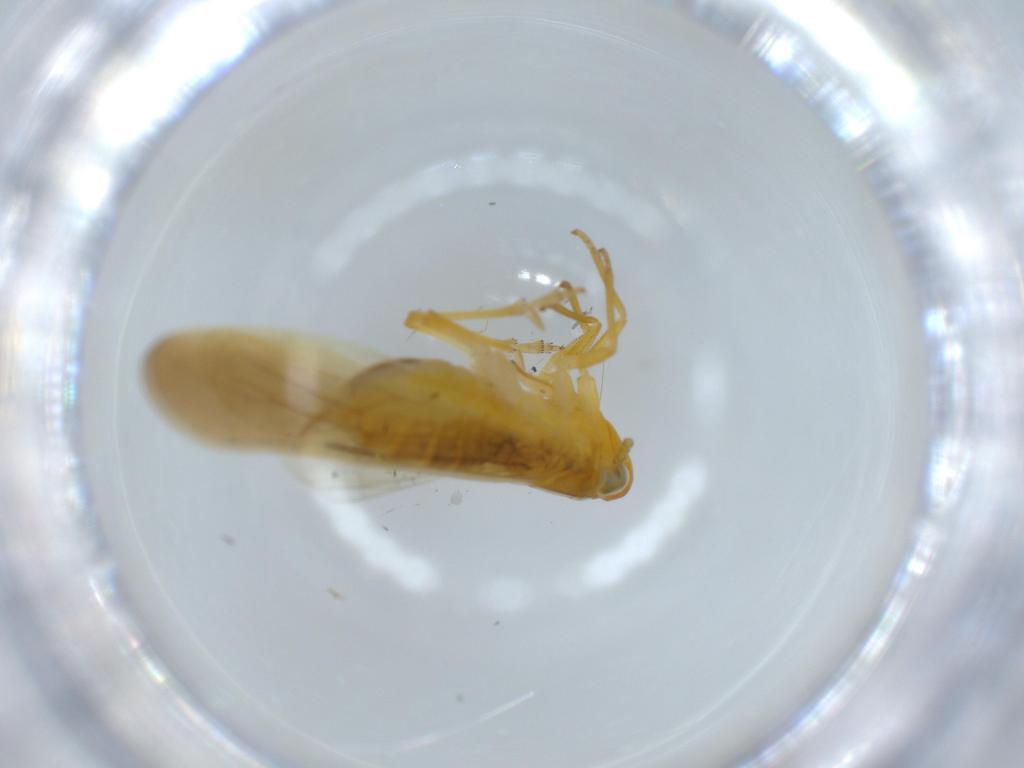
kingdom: Animalia
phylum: Arthropoda
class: Insecta
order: Hemiptera
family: Delphacidae
